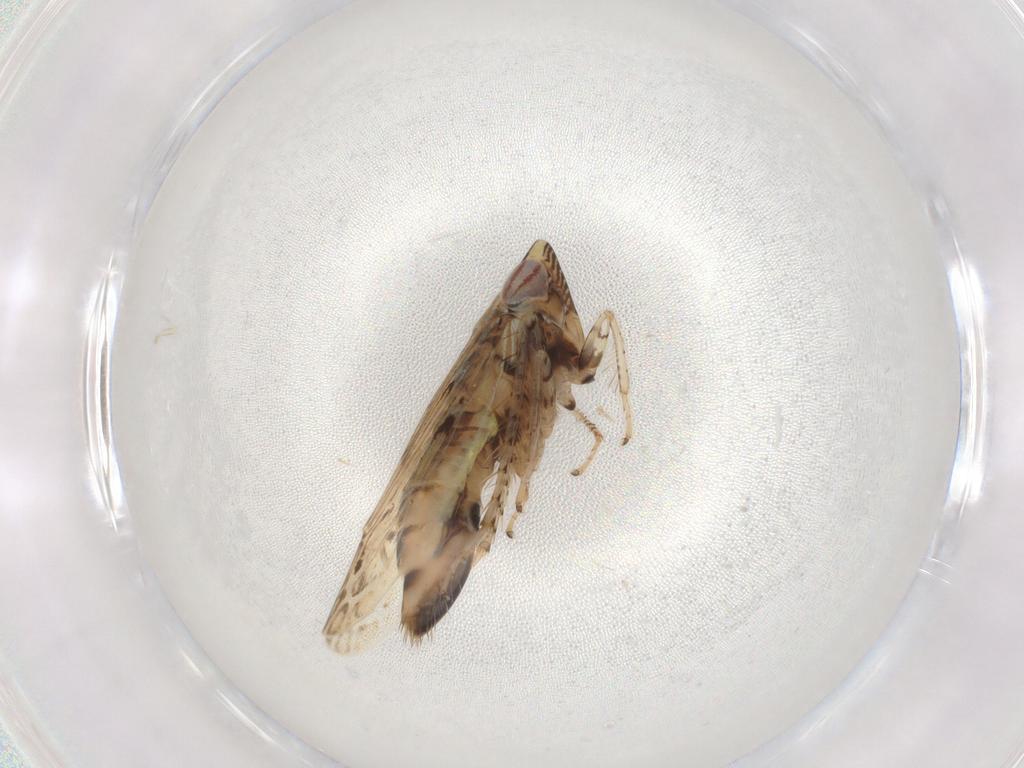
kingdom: Animalia
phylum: Arthropoda
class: Insecta
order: Hemiptera
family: Cicadellidae
